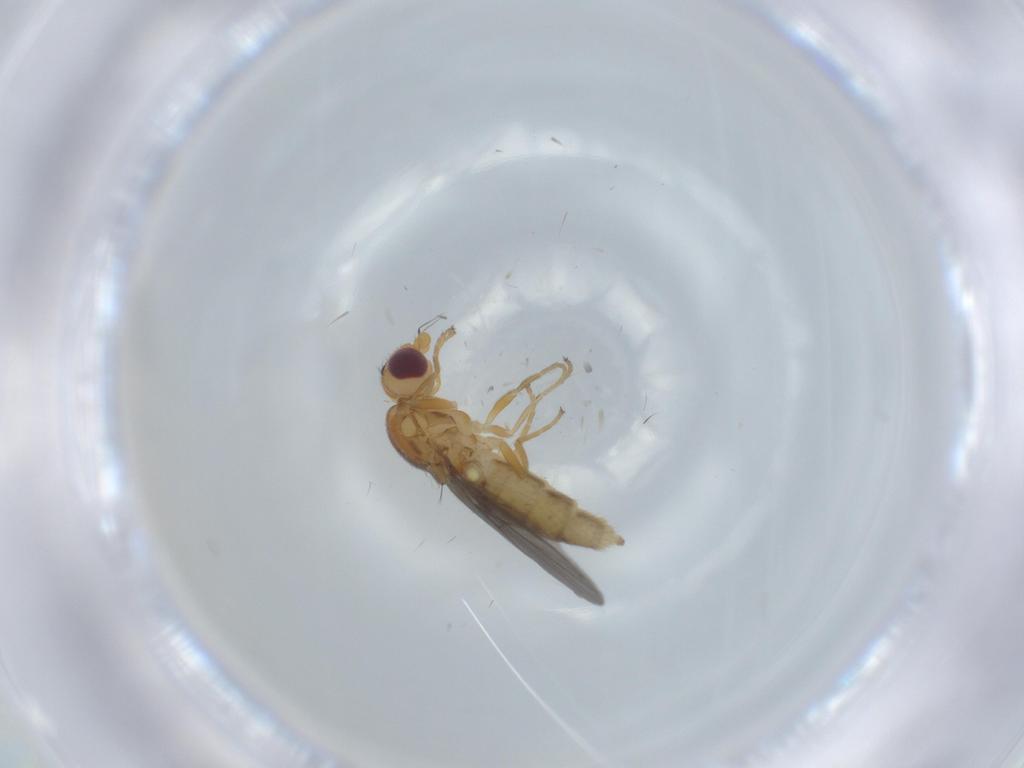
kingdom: Animalia
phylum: Arthropoda
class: Insecta
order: Diptera
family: Chloropidae
